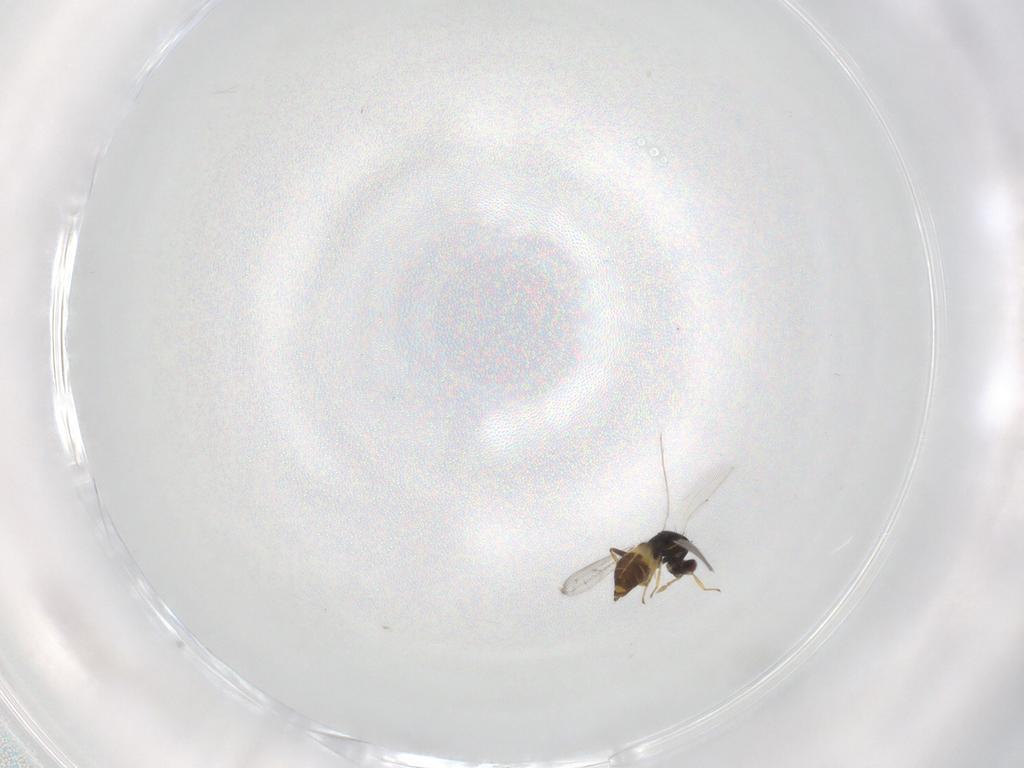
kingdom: Animalia
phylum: Arthropoda
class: Insecta
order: Hymenoptera
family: Eulophidae
